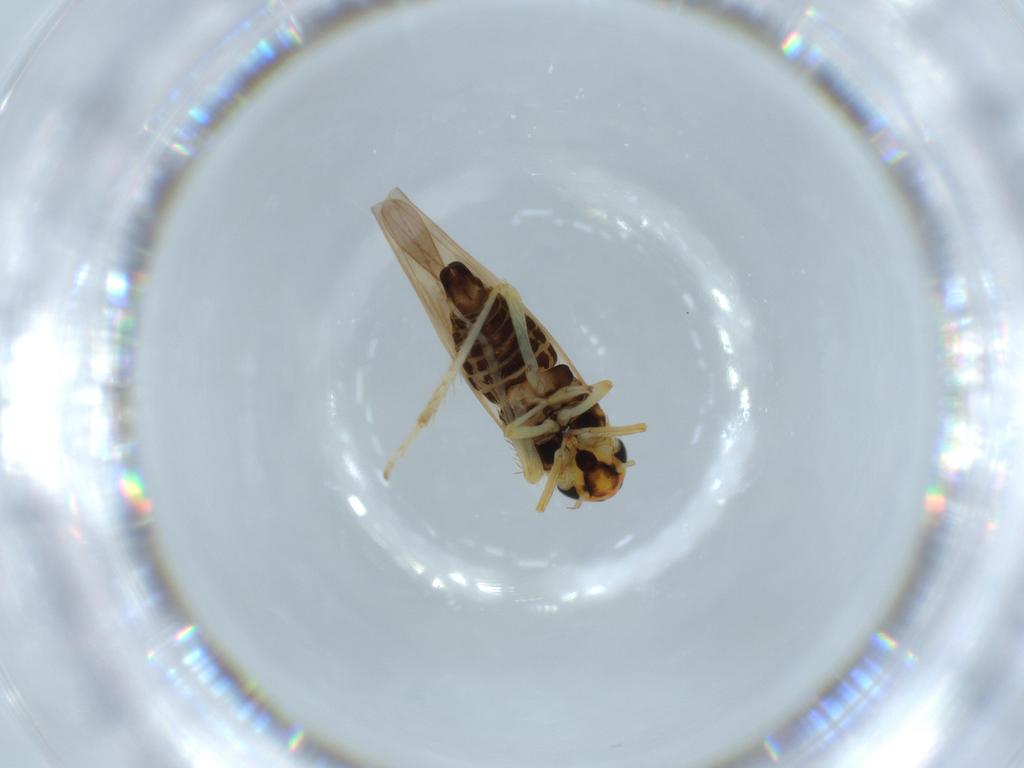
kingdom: Animalia
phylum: Arthropoda
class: Insecta
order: Hemiptera
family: Cicadellidae
